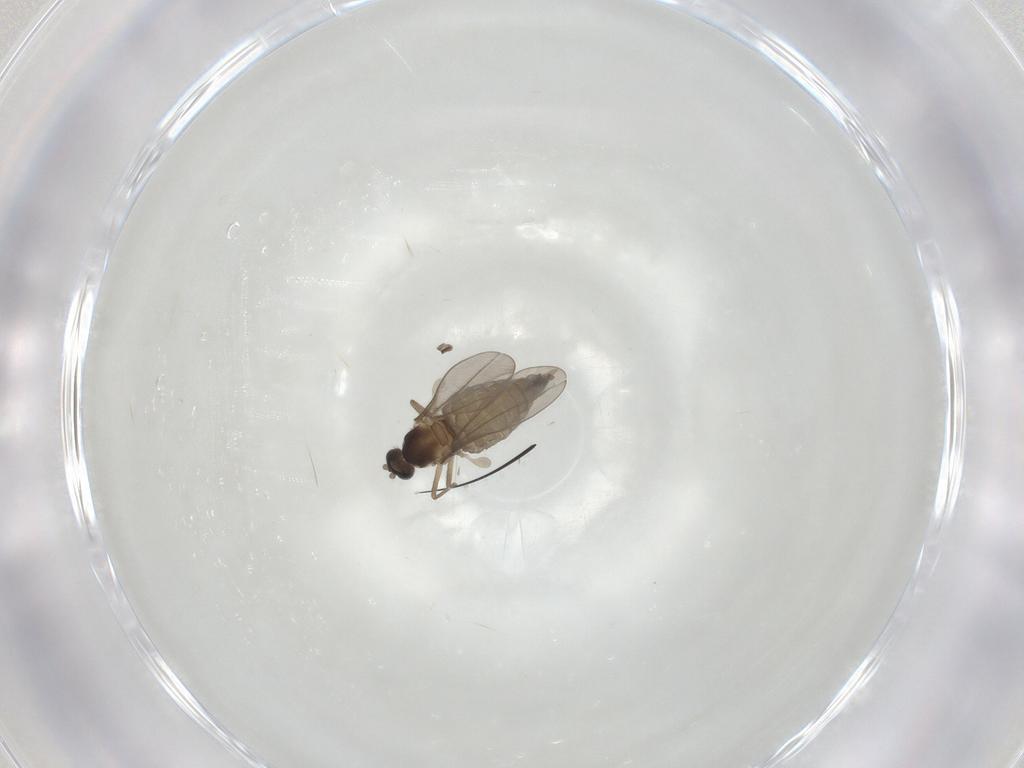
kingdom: Animalia
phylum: Arthropoda
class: Insecta
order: Diptera
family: Cecidomyiidae
